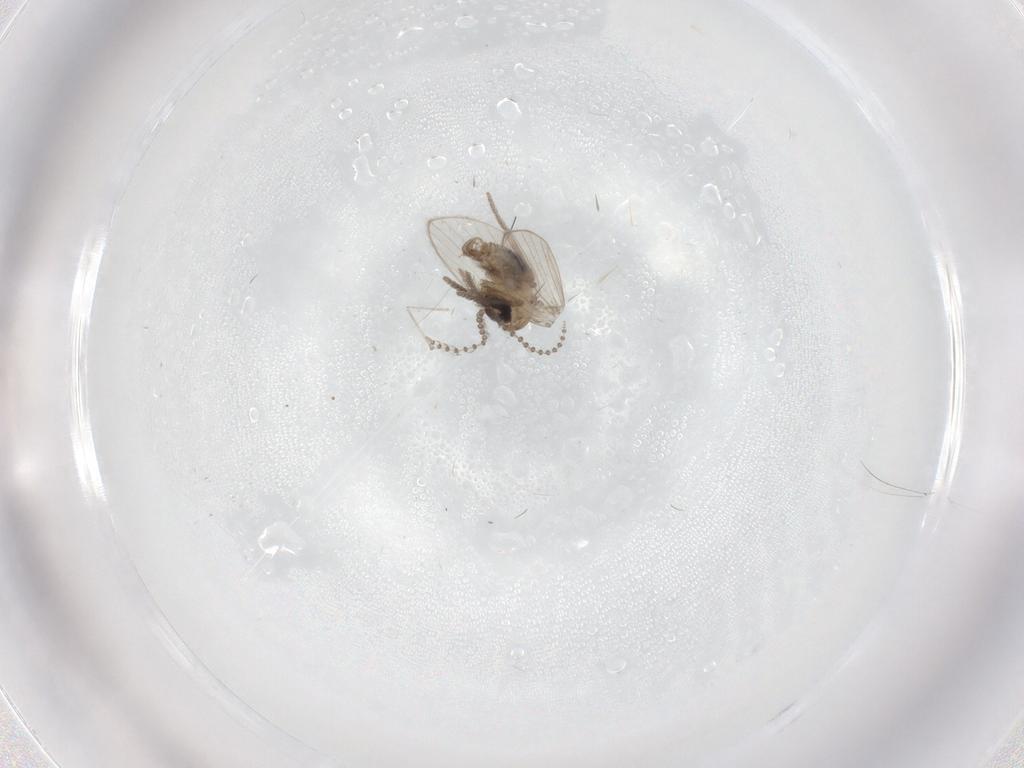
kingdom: Animalia
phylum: Arthropoda
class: Insecta
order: Diptera
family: Psychodidae
